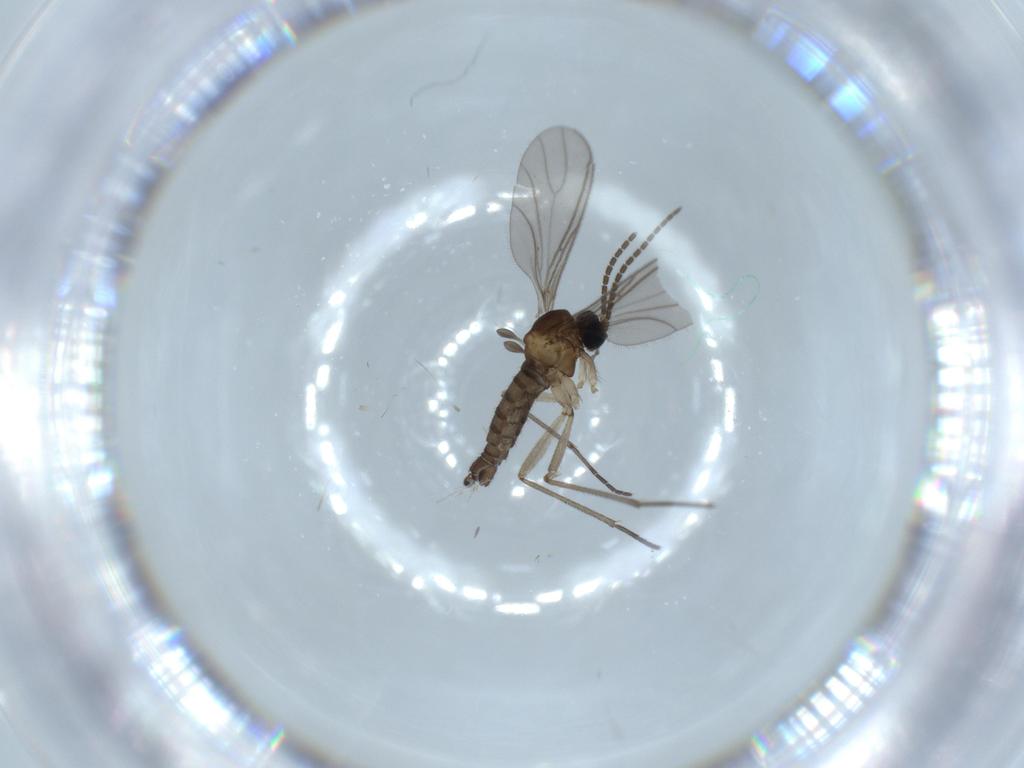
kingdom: Animalia
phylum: Arthropoda
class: Insecta
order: Diptera
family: Sciaridae
